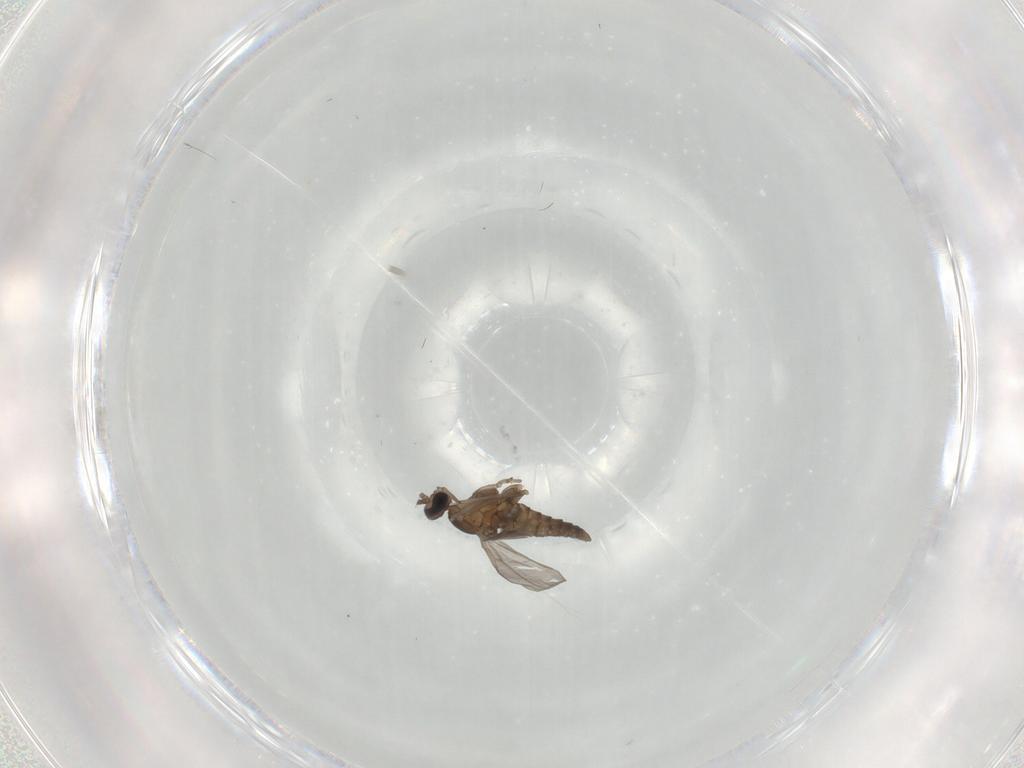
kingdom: Animalia
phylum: Arthropoda
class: Insecta
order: Diptera
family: Cecidomyiidae
